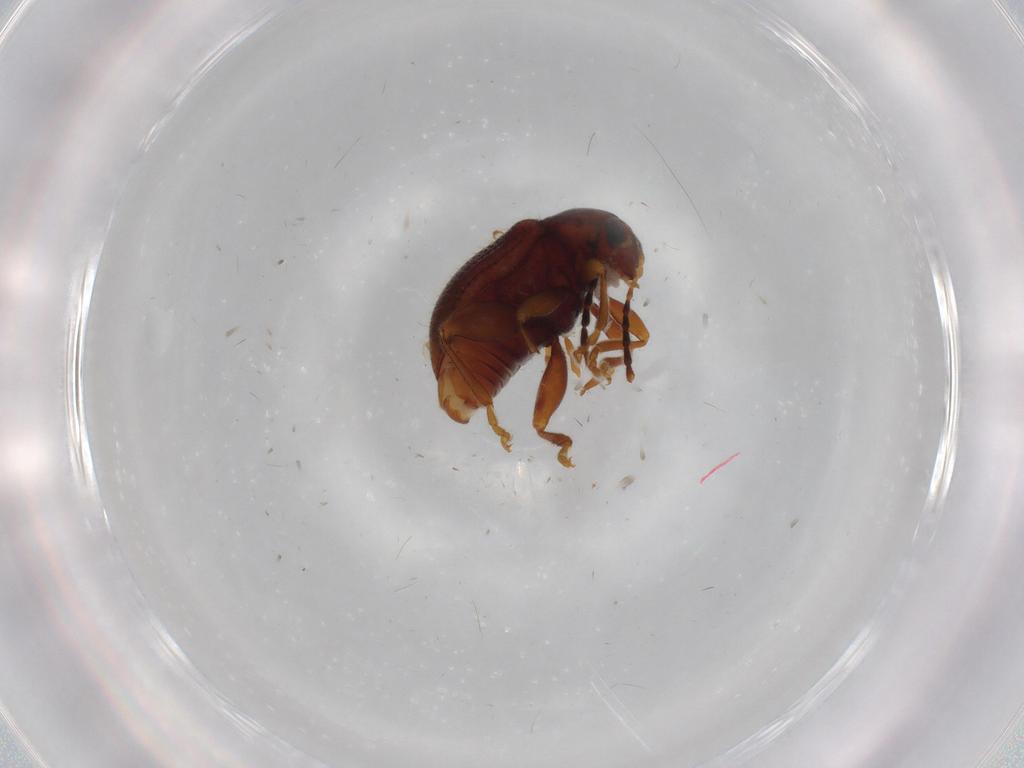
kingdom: Animalia
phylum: Arthropoda
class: Insecta
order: Coleoptera
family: Chrysomelidae
